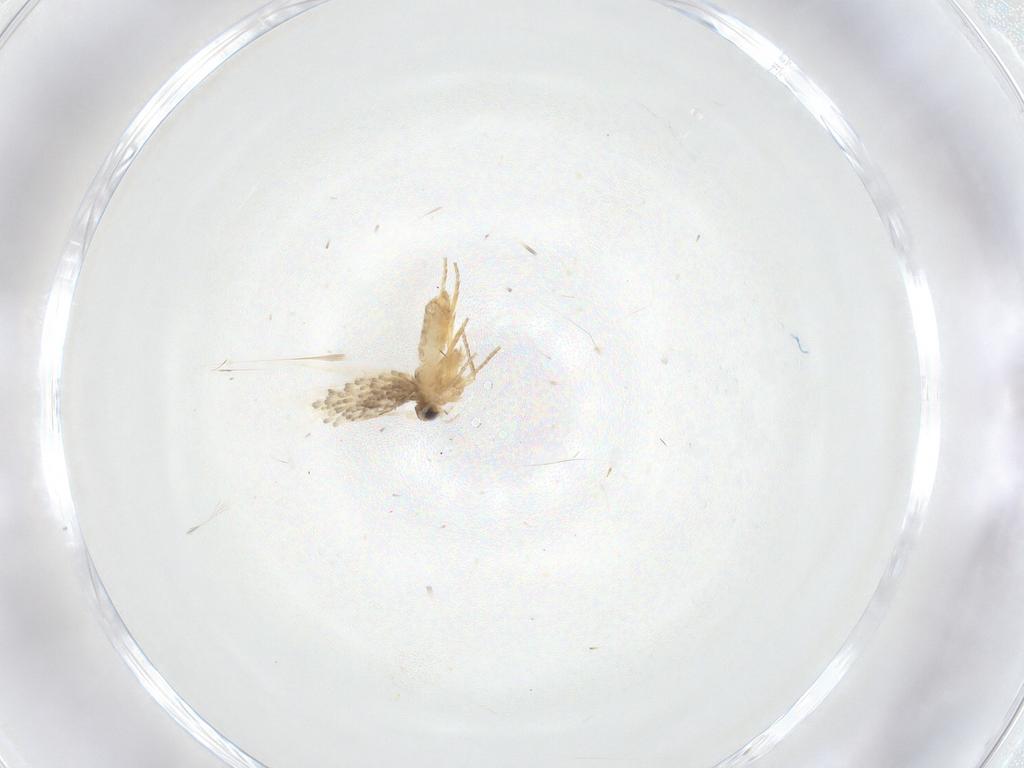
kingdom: Animalia
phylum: Arthropoda
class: Insecta
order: Lepidoptera
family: Nepticulidae
